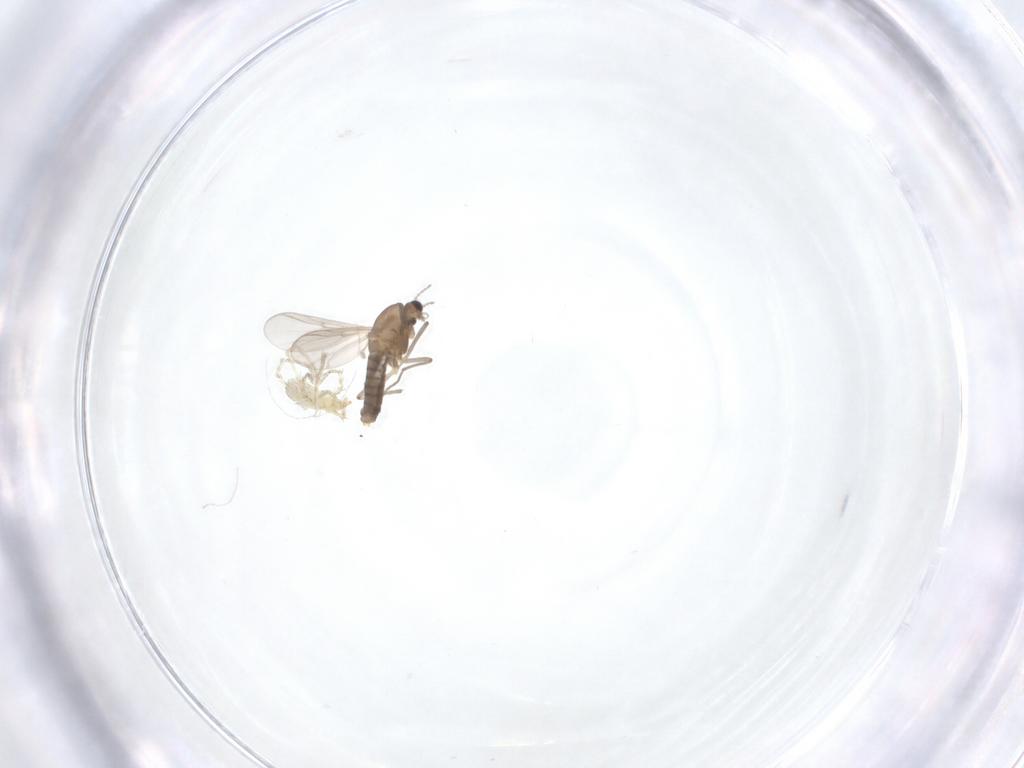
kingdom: Animalia
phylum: Arthropoda
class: Insecta
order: Diptera
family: Chironomidae
